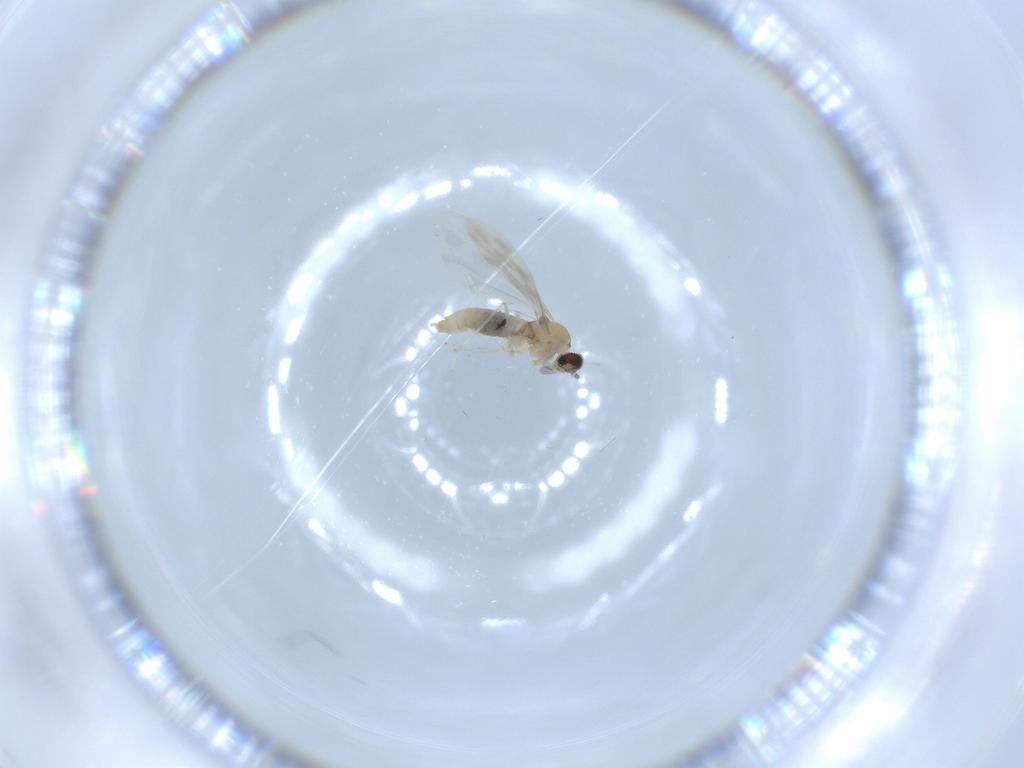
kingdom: Animalia
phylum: Arthropoda
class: Insecta
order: Diptera
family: Cecidomyiidae
